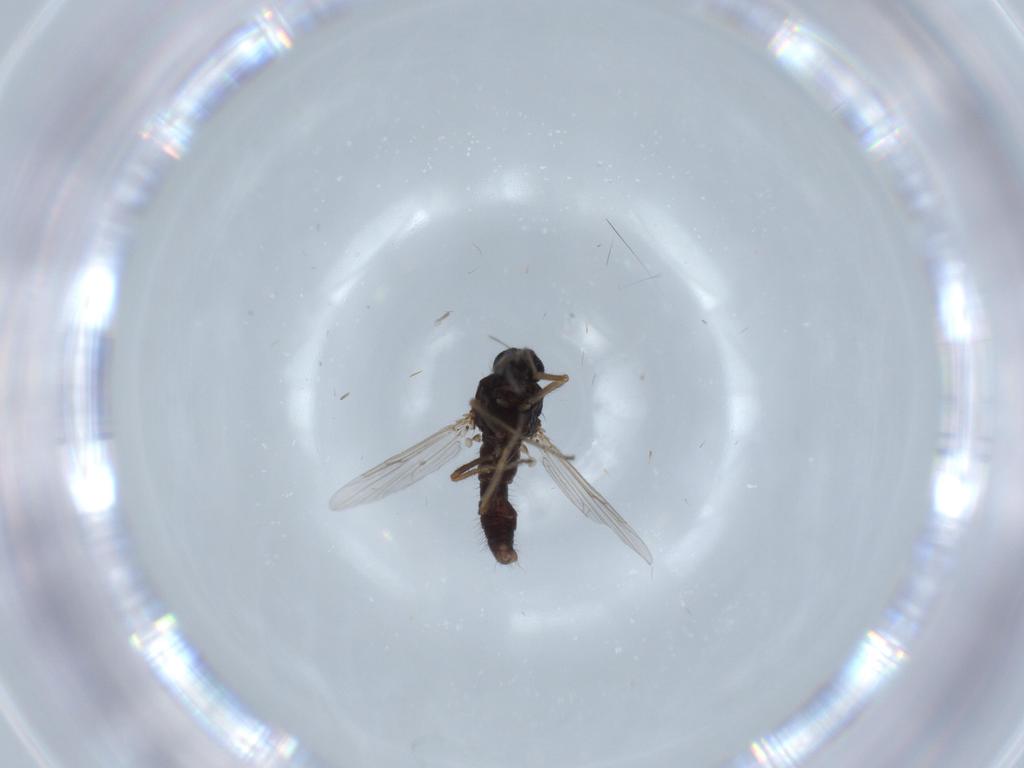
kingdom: Animalia
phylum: Arthropoda
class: Insecta
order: Diptera
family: Ceratopogonidae
